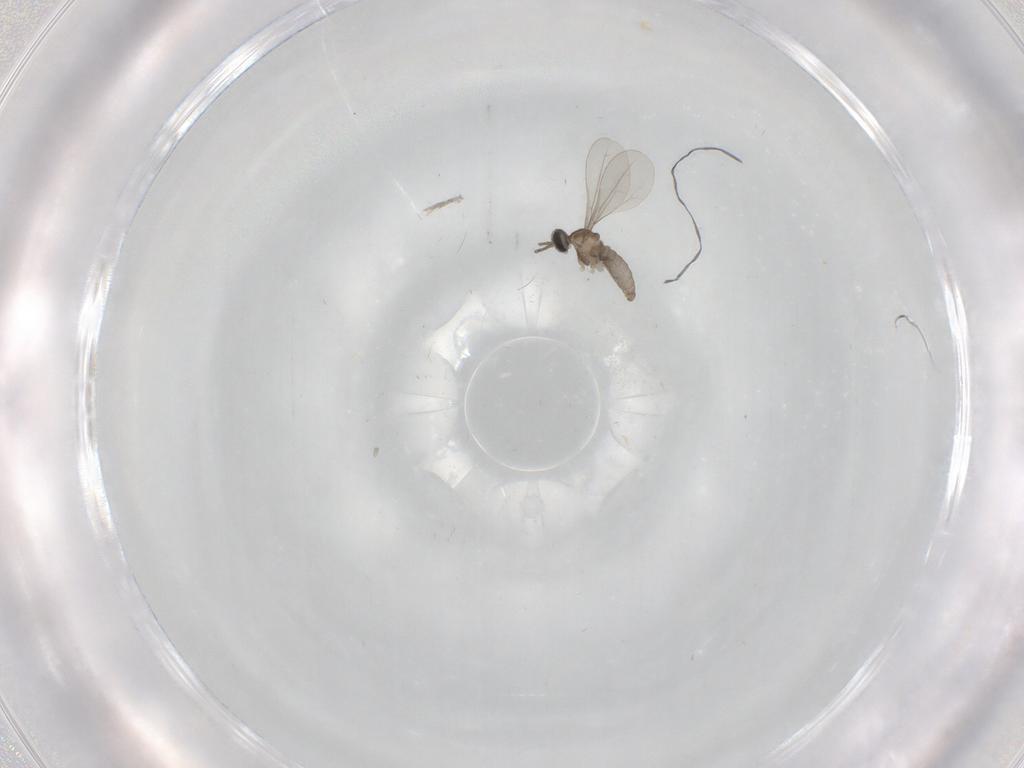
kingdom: Animalia
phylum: Arthropoda
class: Insecta
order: Diptera
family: Cecidomyiidae
